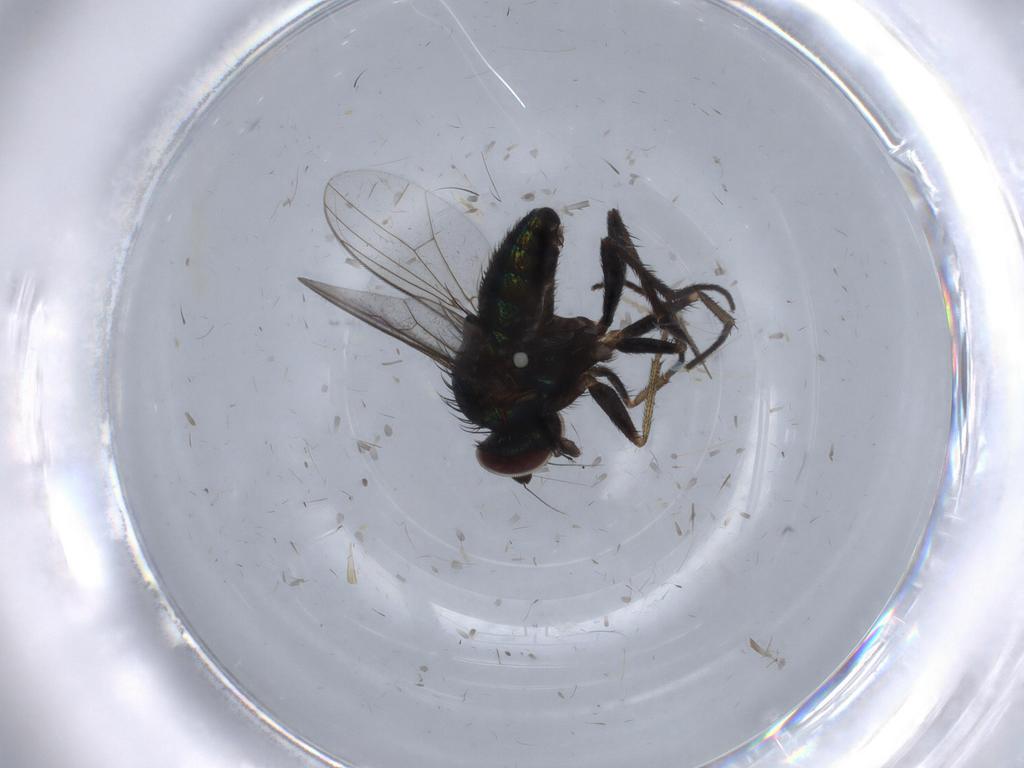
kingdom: Animalia
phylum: Arthropoda
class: Insecta
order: Diptera
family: Dolichopodidae
